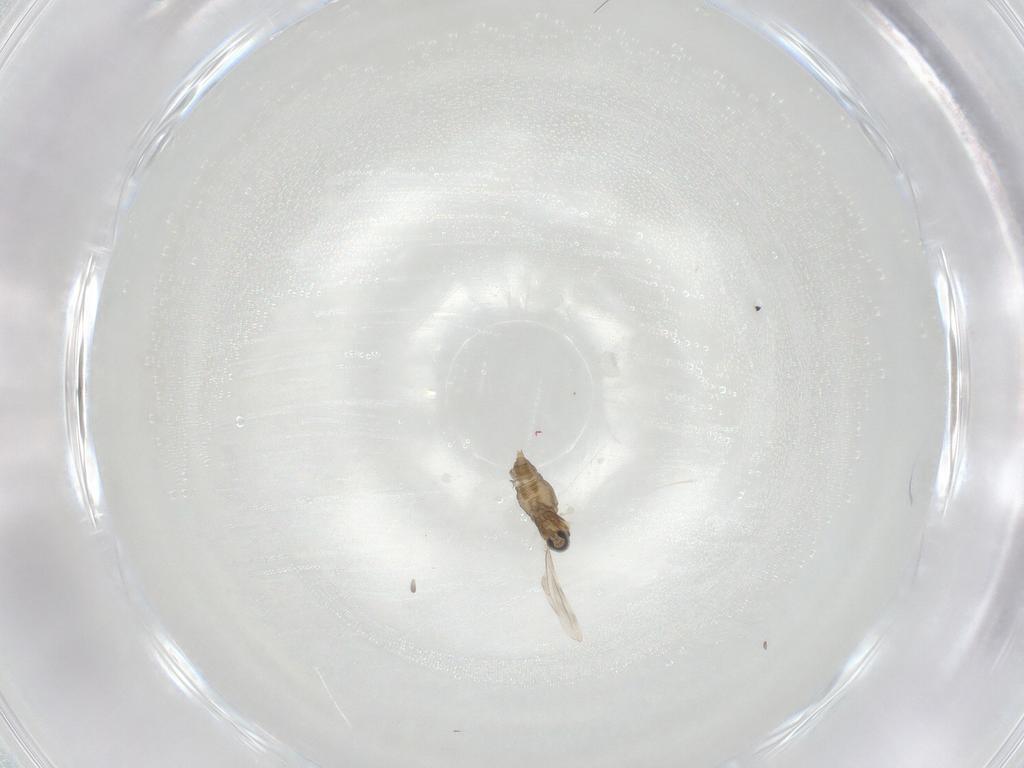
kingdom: Animalia
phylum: Arthropoda
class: Insecta
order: Diptera
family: Cecidomyiidae
